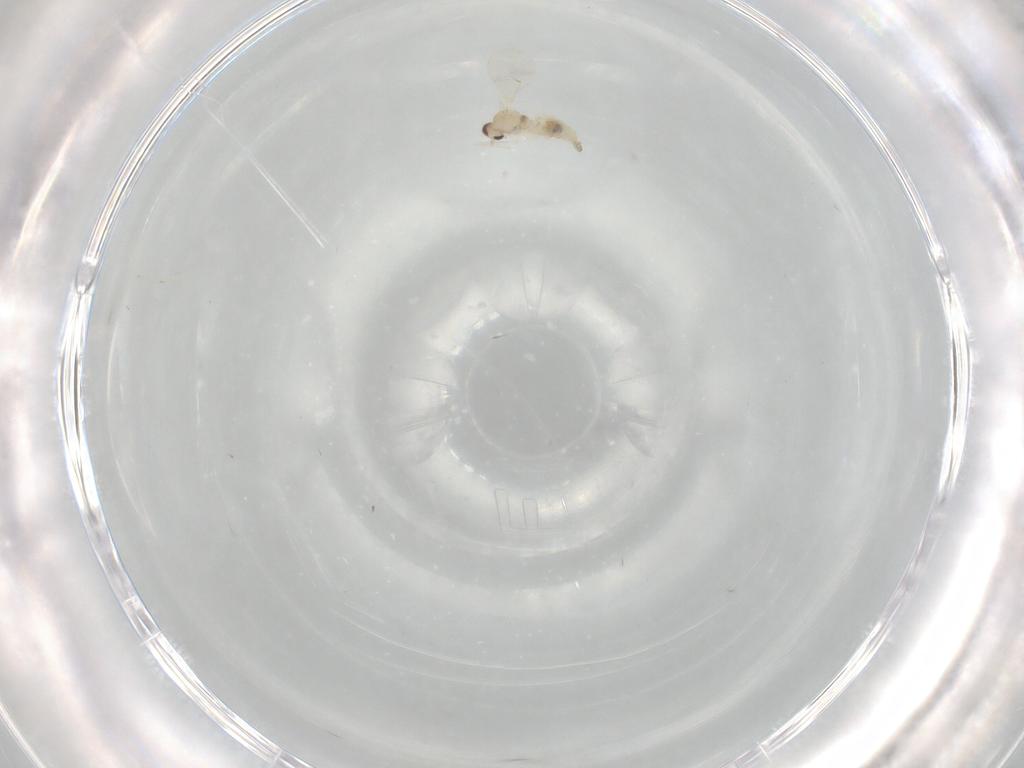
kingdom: Animalia
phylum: Arthropoda
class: Insecta
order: Diptera
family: Cecidomyiidae
